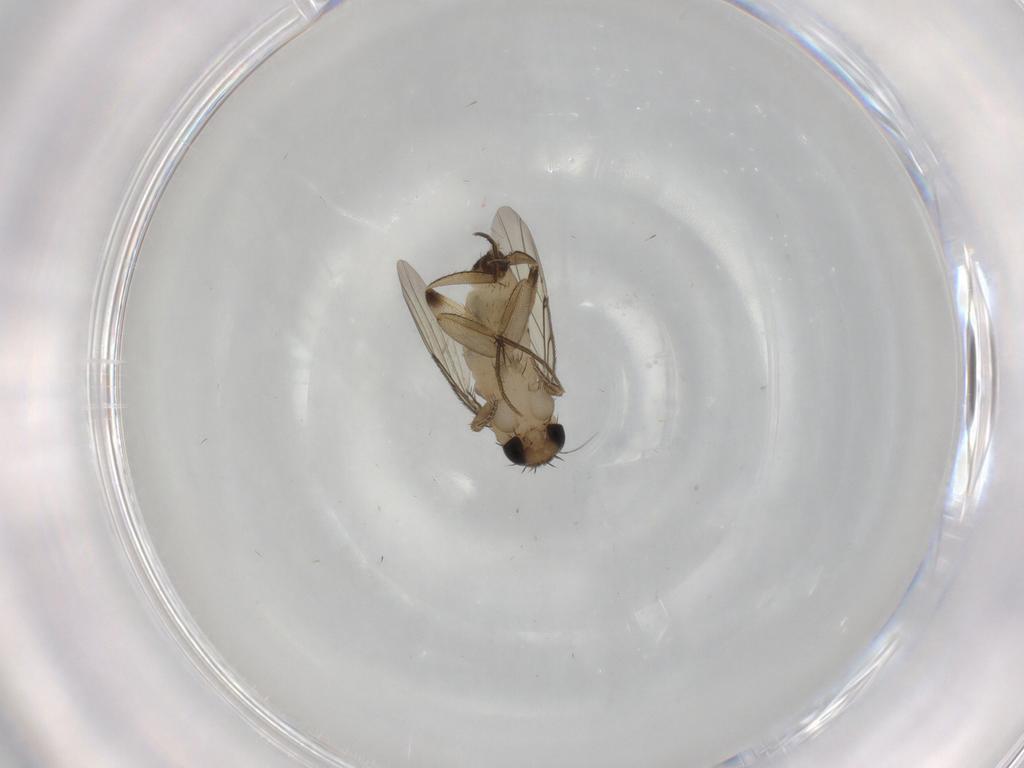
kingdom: Animalia
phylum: Arthropoda
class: Insecta
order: Diptera
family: Phoridae
